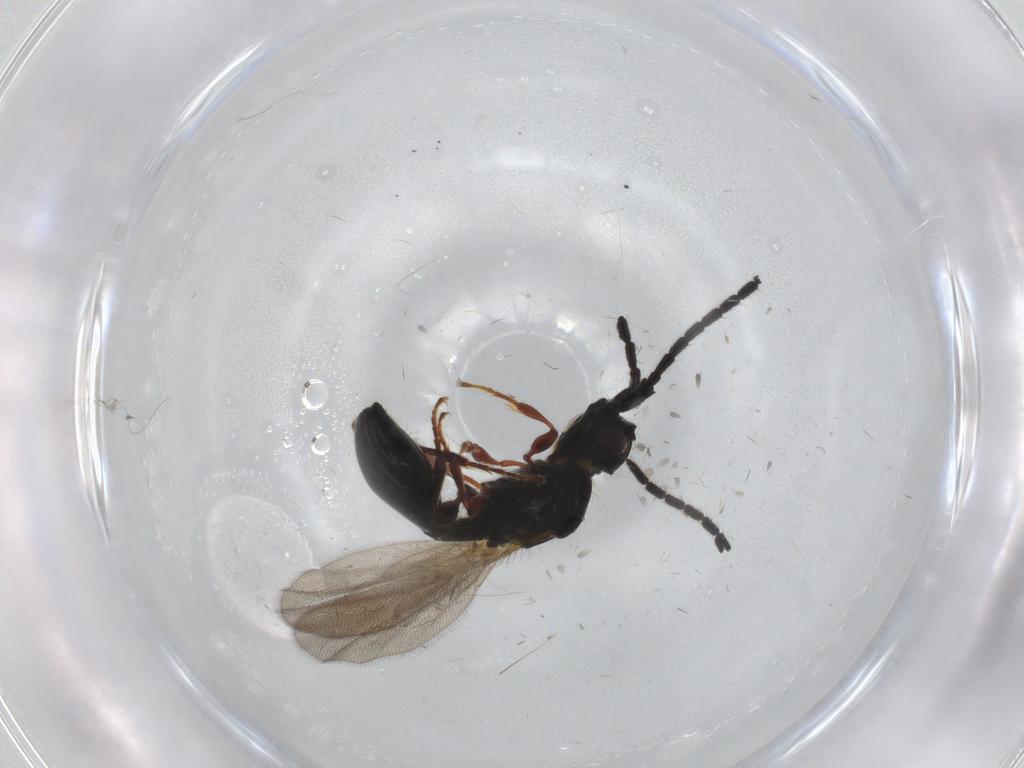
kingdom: Animalia
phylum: Arthropoda
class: Insecta
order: Hymenoptera
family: Diapriidae
